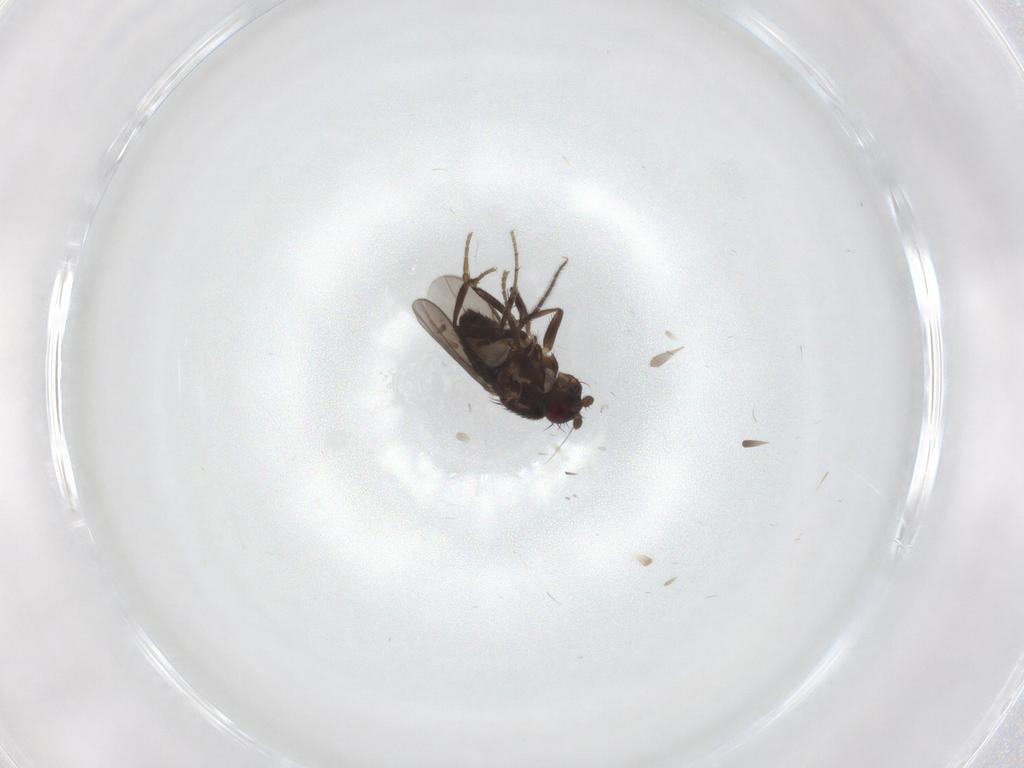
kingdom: Animalia
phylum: Arthropoda
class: Insecta
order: Diptera
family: Sphaeroceridae
